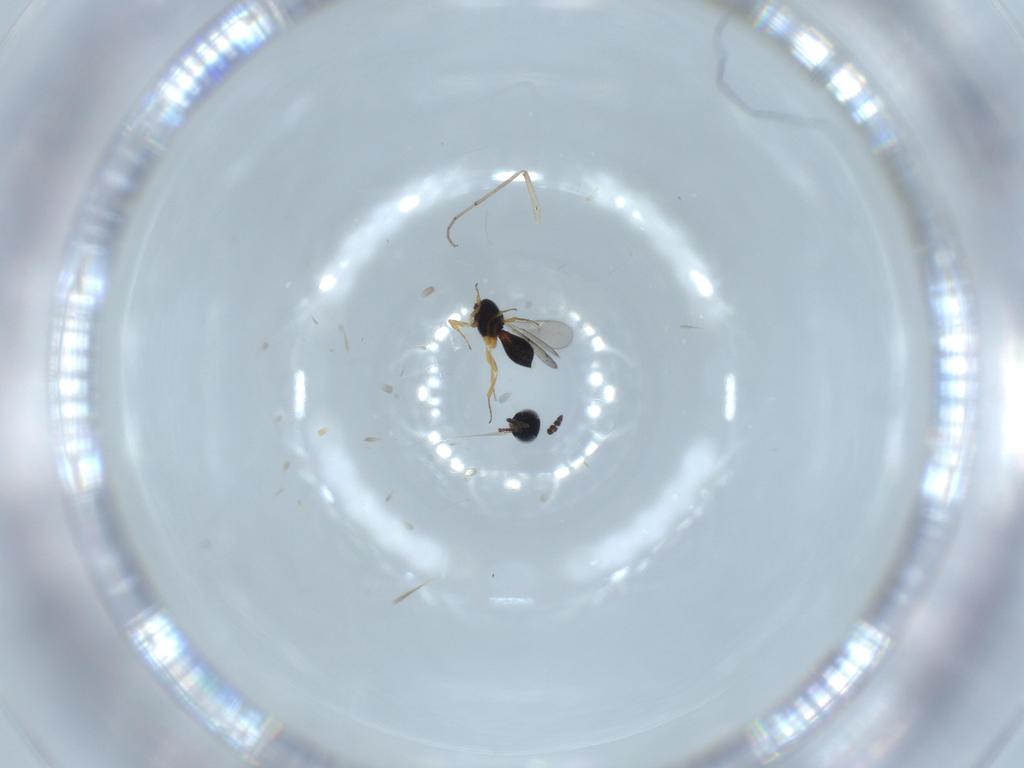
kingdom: Animalia
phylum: Arthropoda
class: Insecta
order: Hymenoptera
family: Scelionidae
